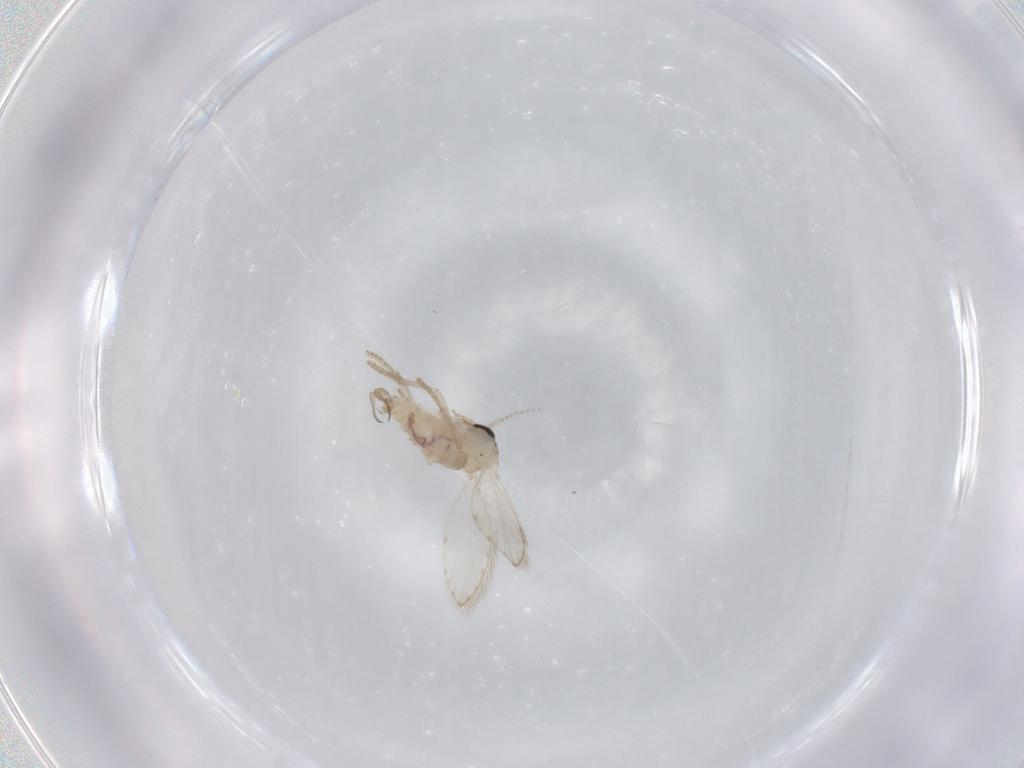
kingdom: Animalia
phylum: Arthropoda
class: Insecta
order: Diptera
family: Psychodidae
